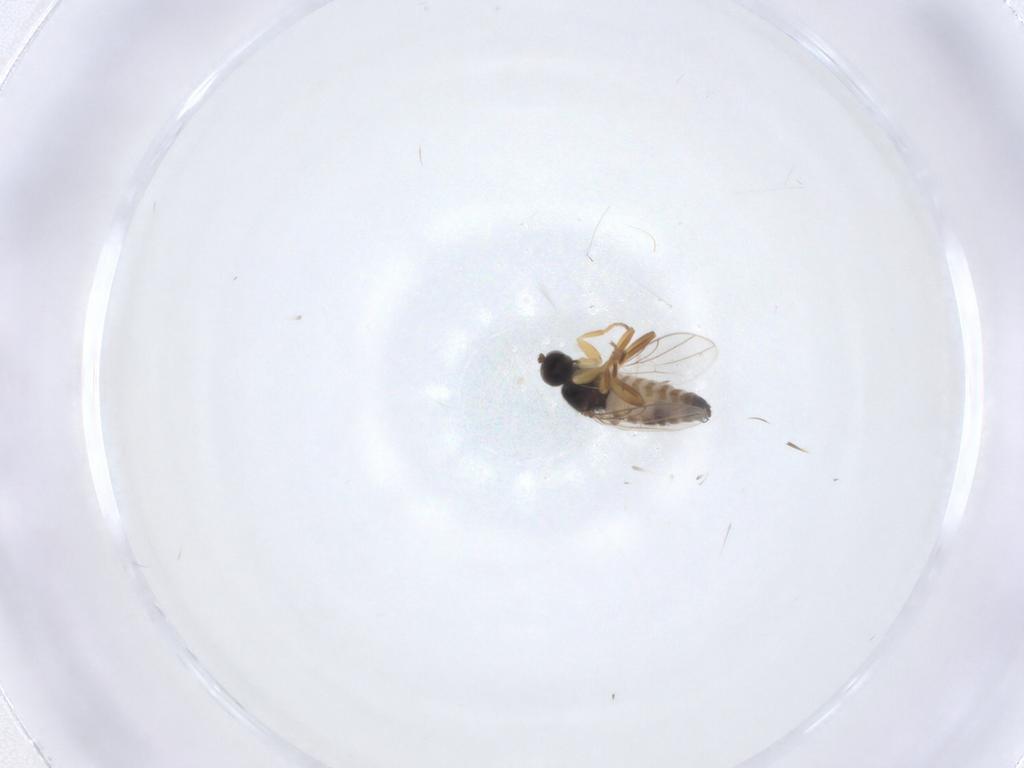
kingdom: Animalia
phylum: Arthropoda
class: Insecta
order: Diptera
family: Hybotidae
